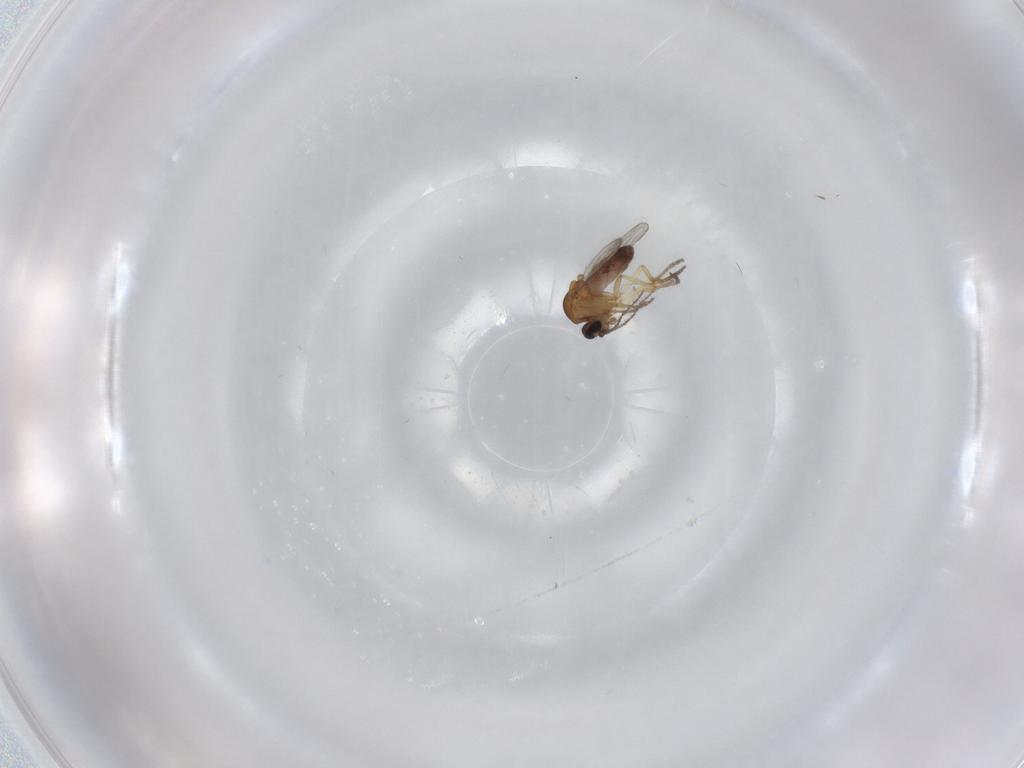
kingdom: Animalia
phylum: Arthropoda
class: Insecta
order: Diptera
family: Ceratopogonidae
